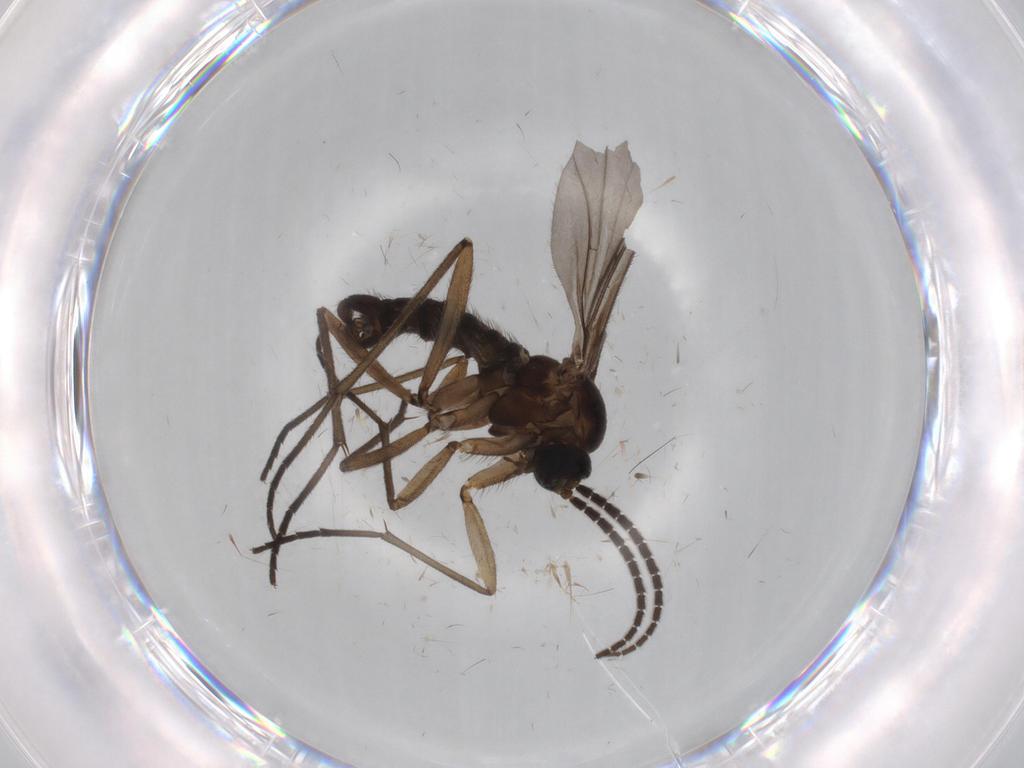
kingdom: Animalia
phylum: Arthropoda
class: Insecta
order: Diptera
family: Sciaridae
